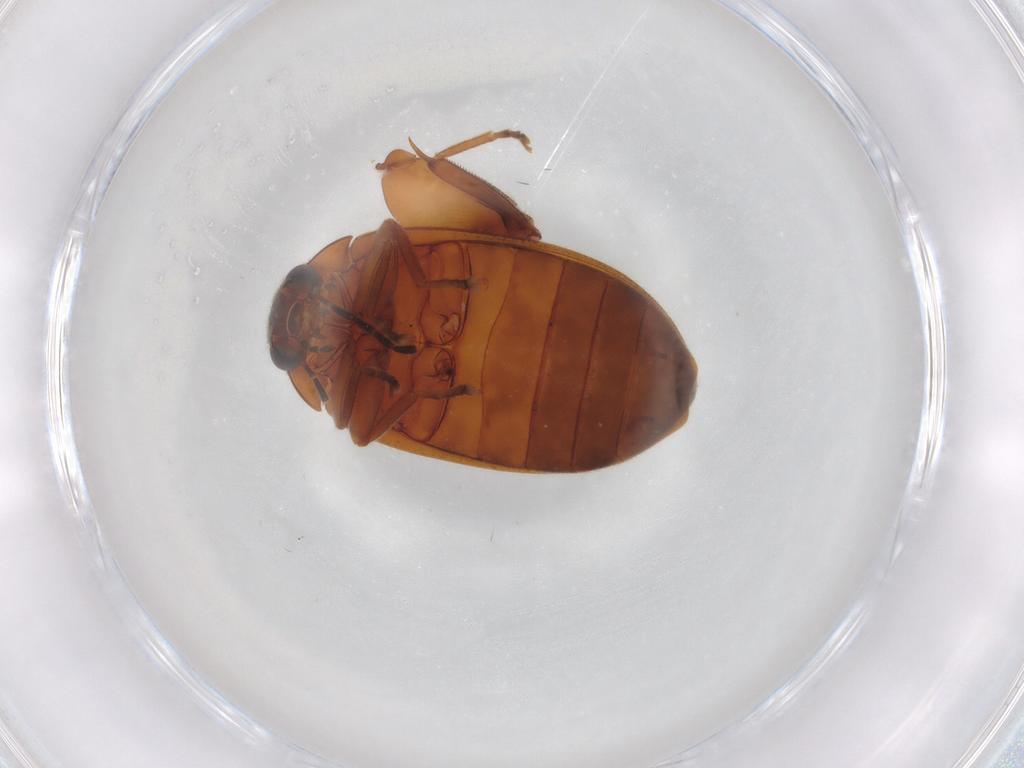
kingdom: Animalia
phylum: Arthropoda
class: Insecta
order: Coleoptera
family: Scirtidae
